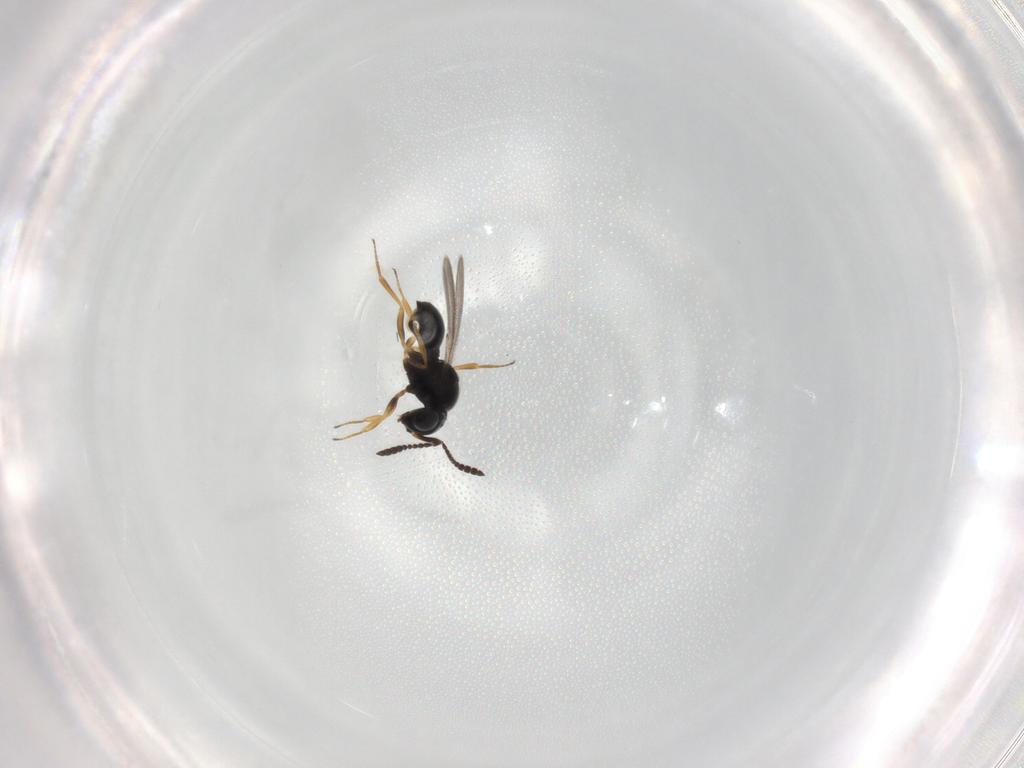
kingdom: Animalia
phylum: Arthropoda
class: Insecta
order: Hymenoptera
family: Scelionidae
